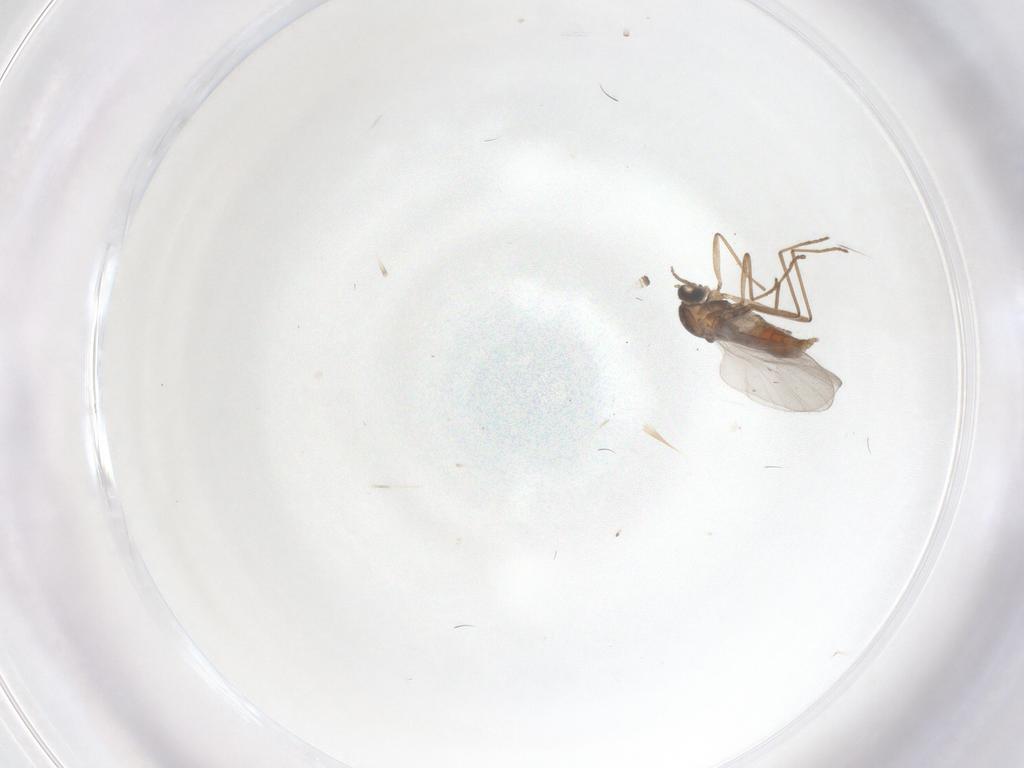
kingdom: Animalia
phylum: Arthropoda
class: Insecta
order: Diptera
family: Cecidomyiidae
